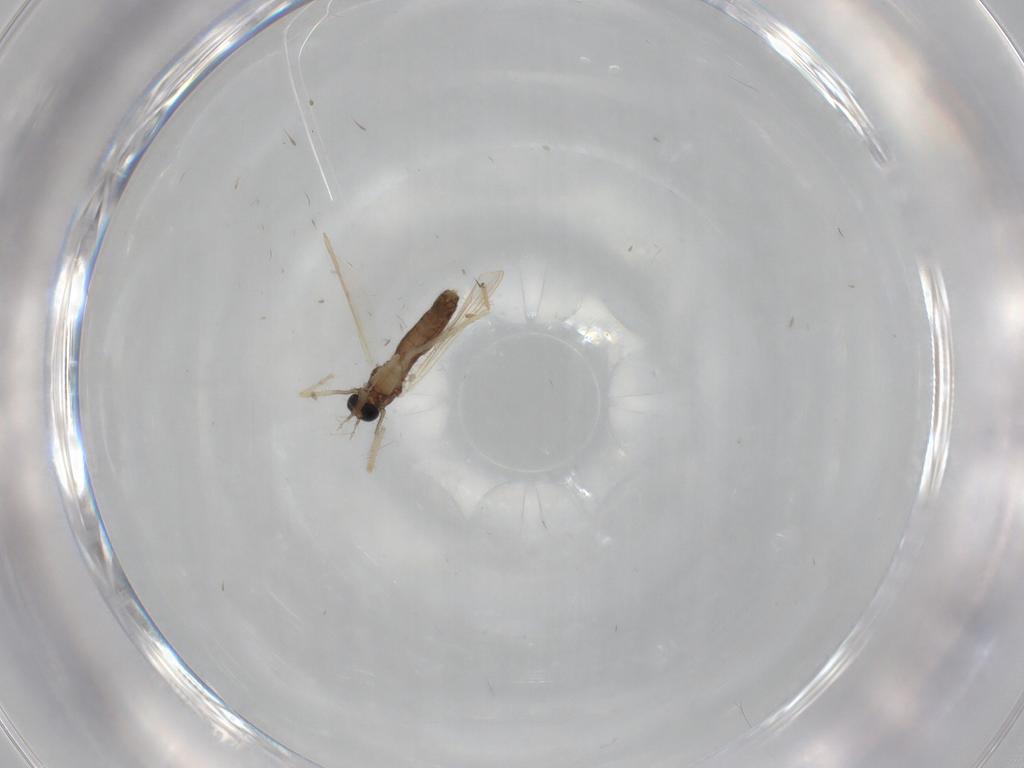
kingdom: Animalia
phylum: Arthropoda
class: Insecta
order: Diptera
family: Chironomidae
